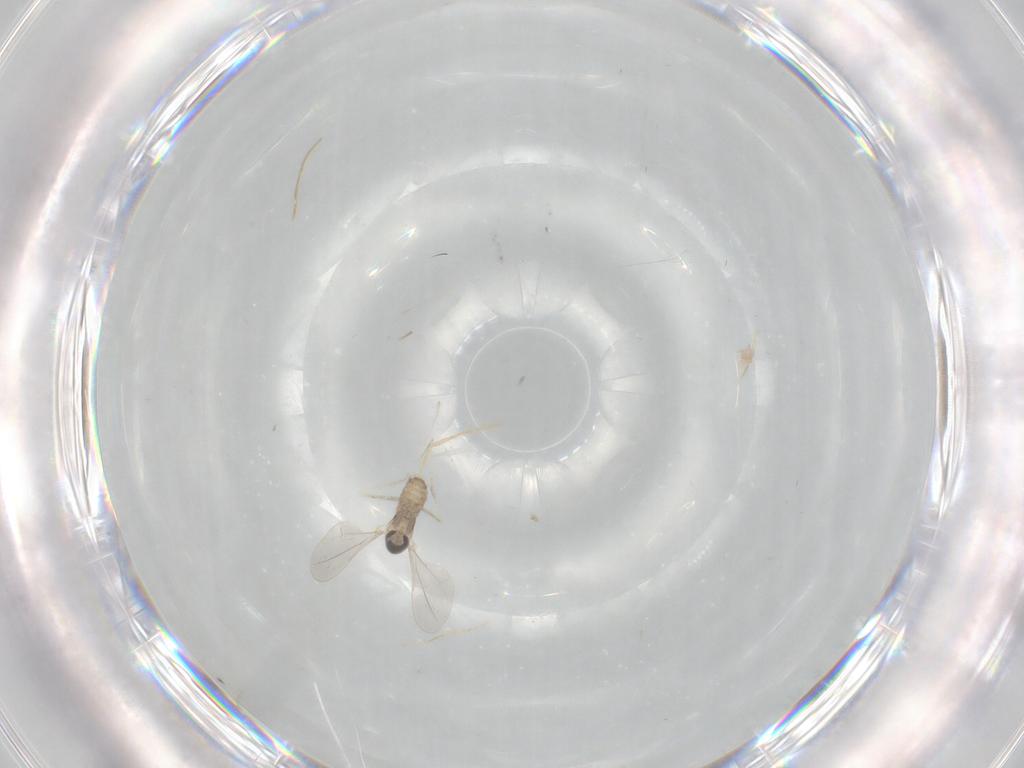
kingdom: Animalia
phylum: Arthropoda
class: Insecta
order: Diptera
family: Cecidomyiidae
